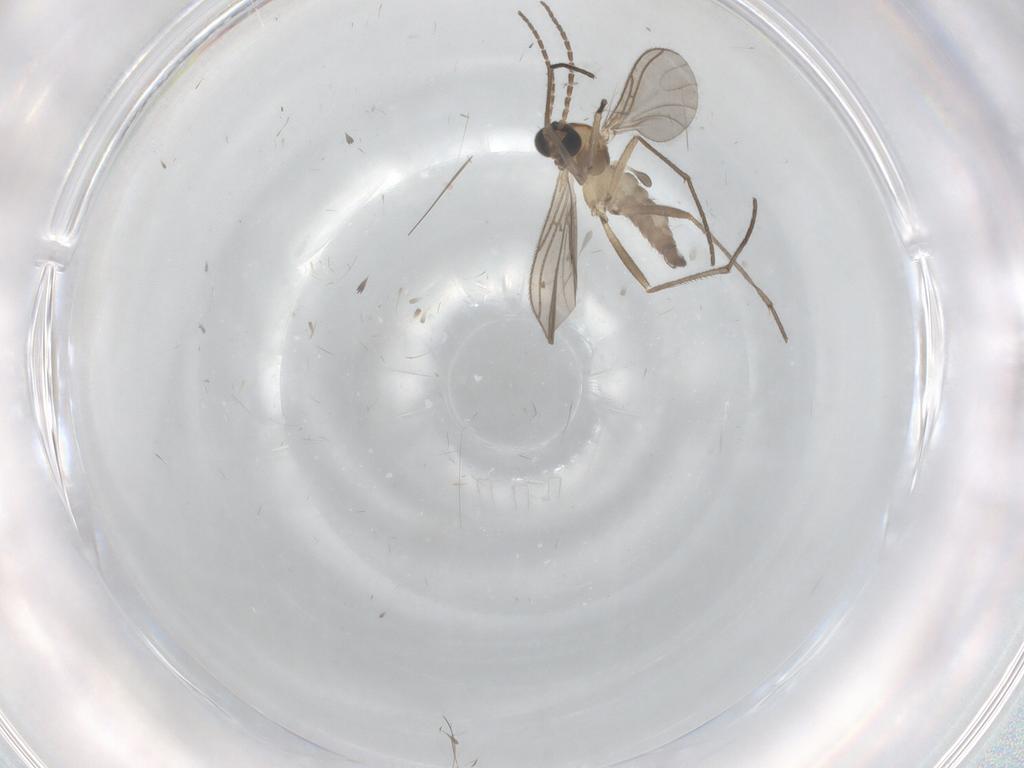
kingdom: Animalia
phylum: Arthropoda
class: Insecta
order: Diptera
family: Sciaridae
